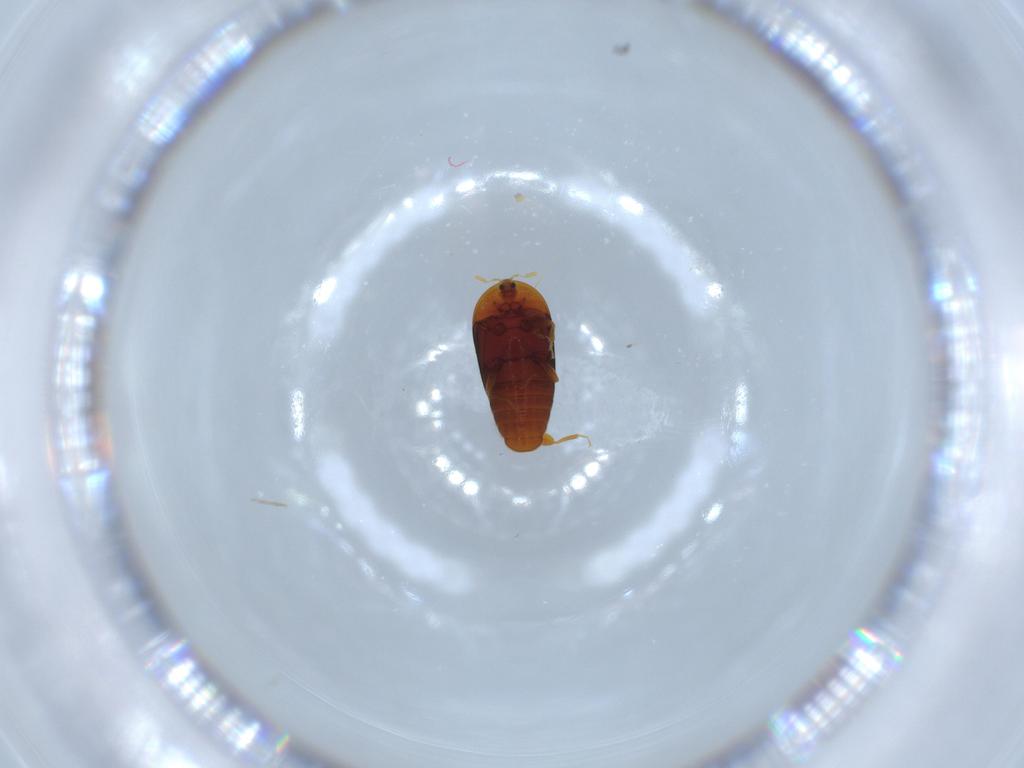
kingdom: Animalia
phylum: Arthropoda
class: Insecta
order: Coleoptera
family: Corylophidae
